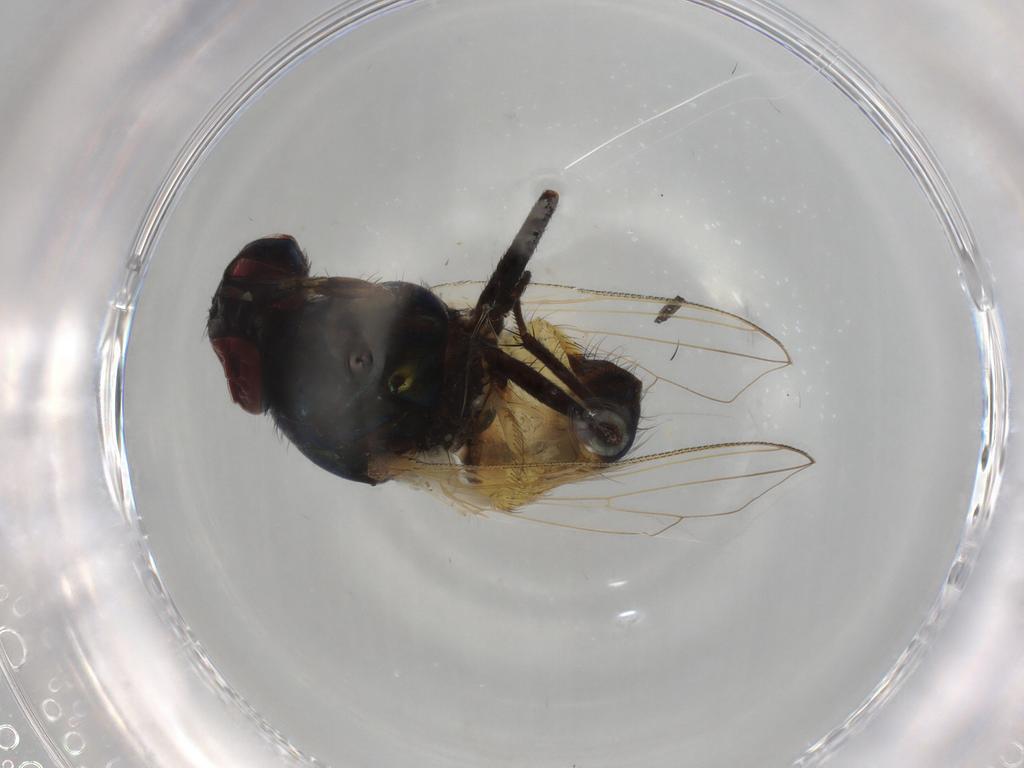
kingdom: Animalia
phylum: Arthropoda
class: Insecta
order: Diptera
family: Muscidae
